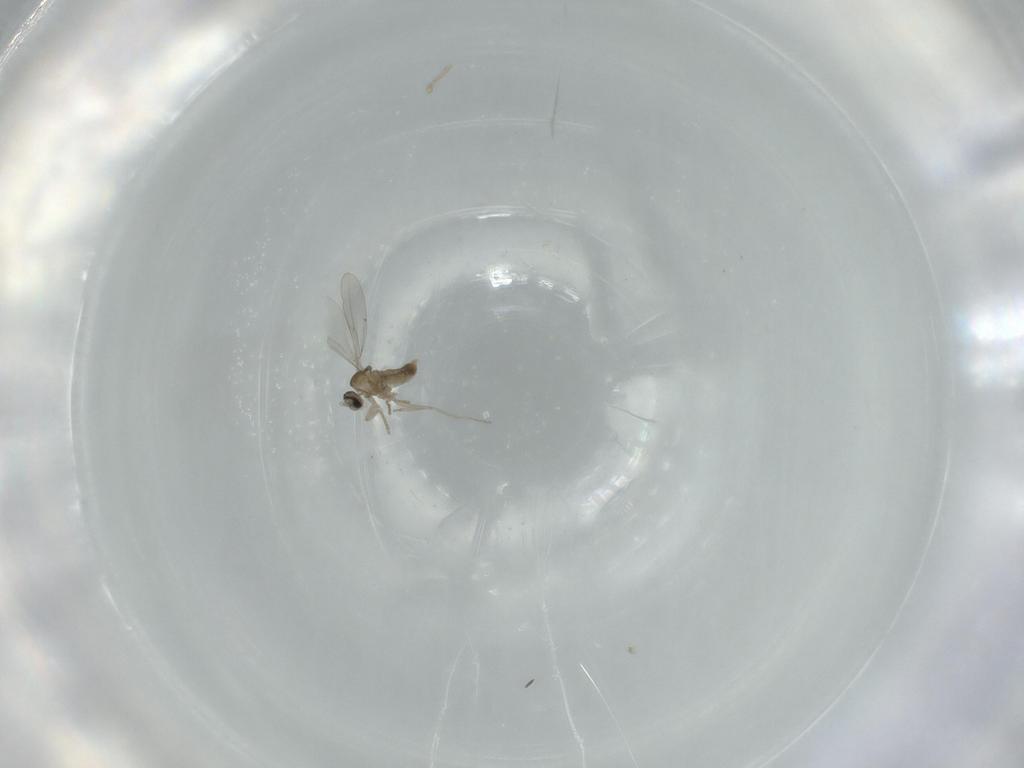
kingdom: Animalia
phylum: Arthropoda
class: Insecta
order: Diptera
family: Cecidomyiidae
